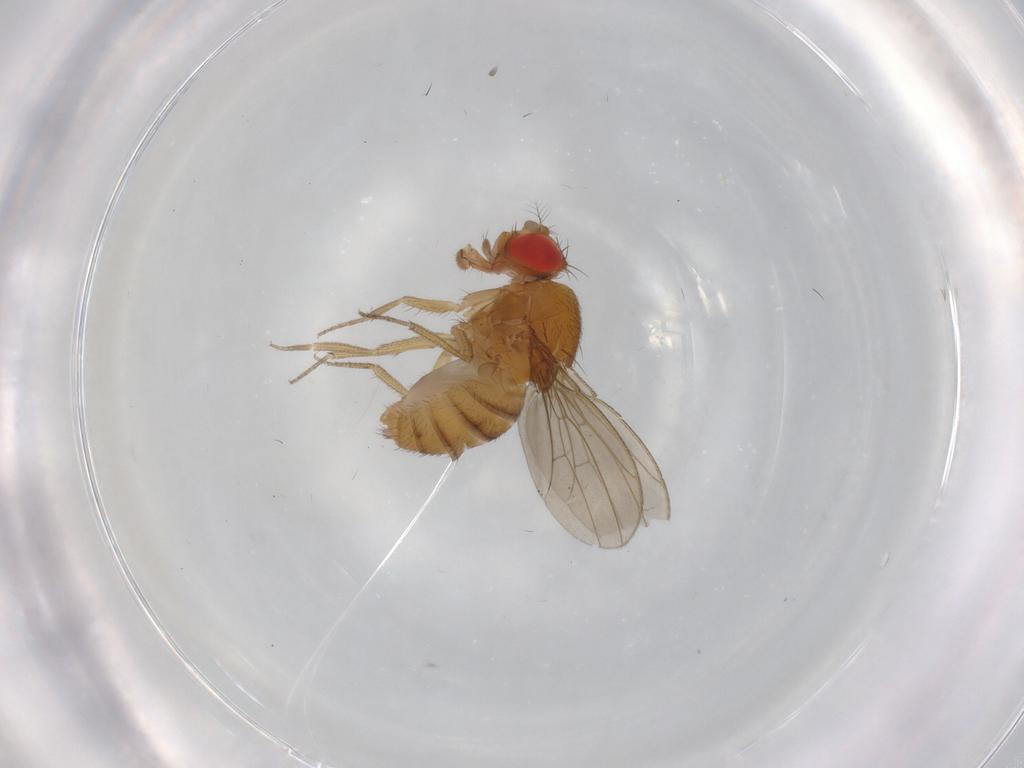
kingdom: Animalia
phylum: Arthropoda
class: Insecta
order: Diptera
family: Drosophilidae
